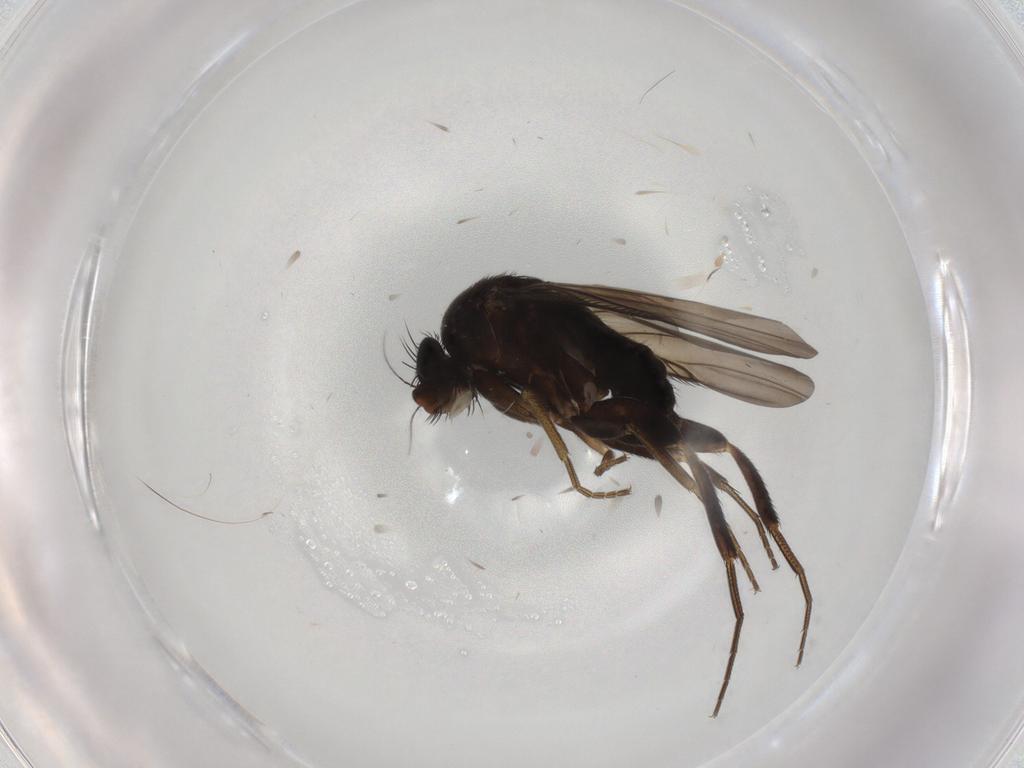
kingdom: Animalia
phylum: Arthropoda
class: Insecta
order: Diptera
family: Phoridae
